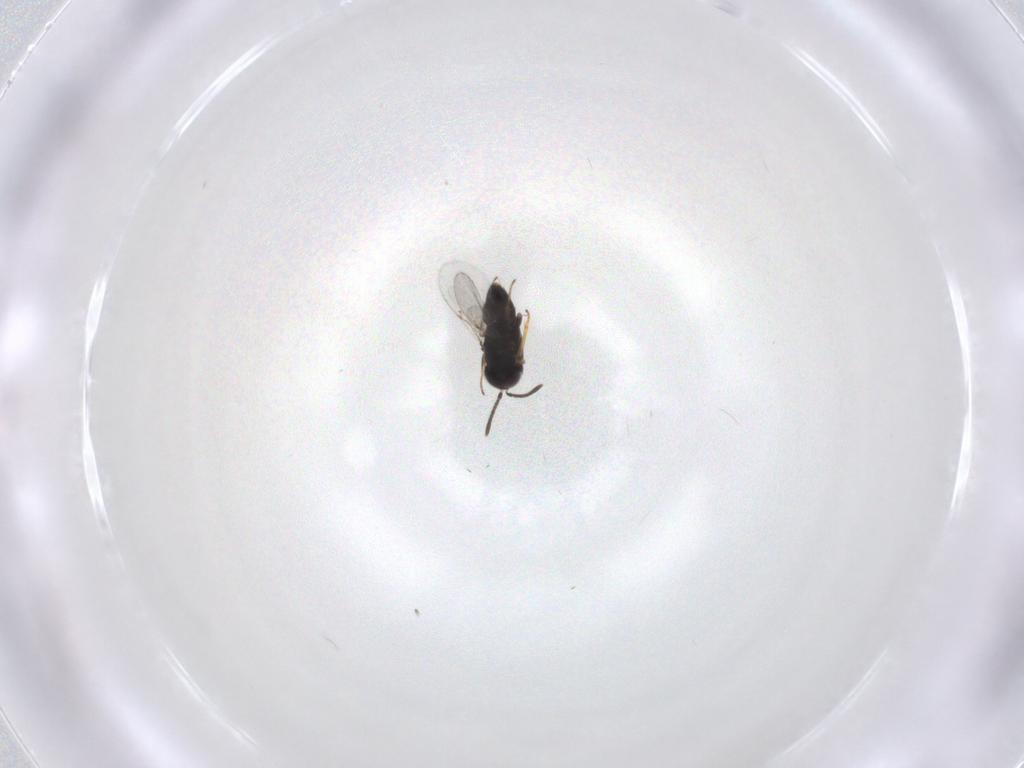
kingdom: Animalia
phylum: Arthropoda
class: Insecta
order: Hymenoptera
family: Encyrtidae
